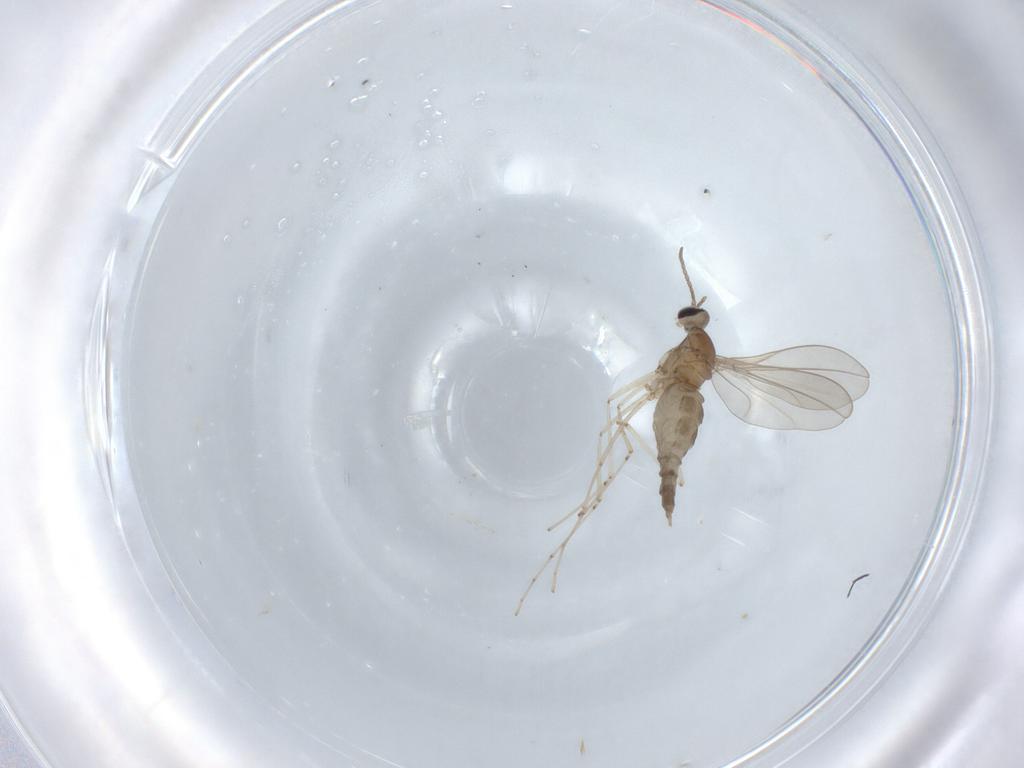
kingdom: Animalia
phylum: Arthropoda
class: Insecta
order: Diptera
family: Cecidomyiidae
